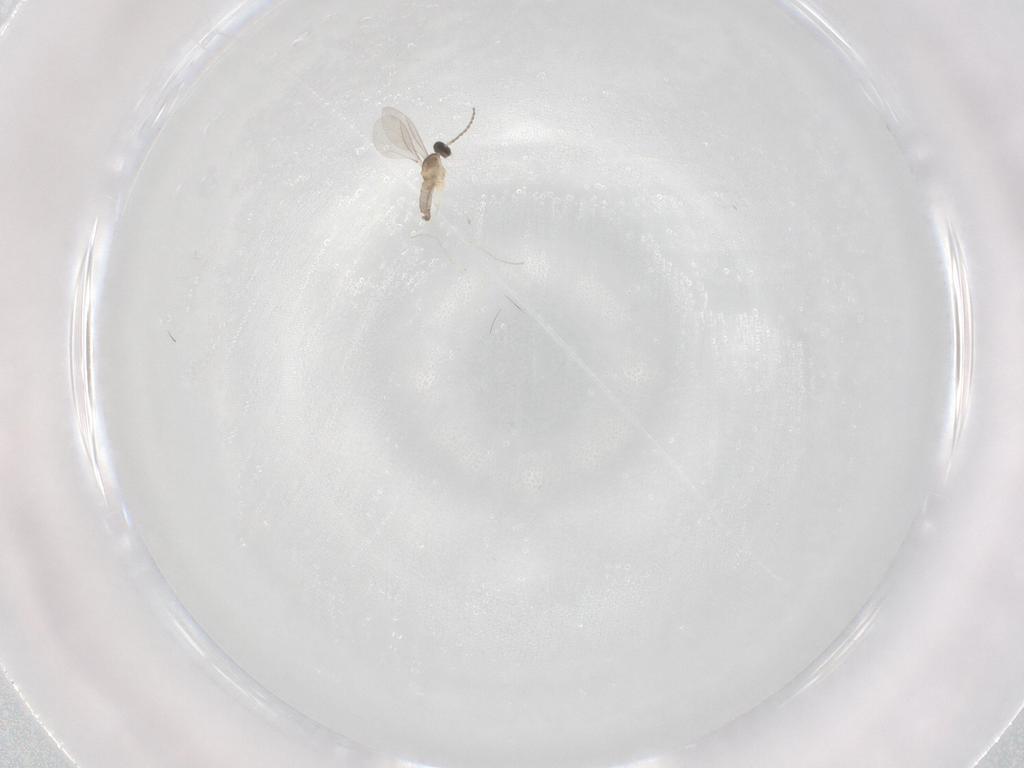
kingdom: Animalia
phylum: Arthropoda
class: Insecta
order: Diptera
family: Cecidomyiidae
